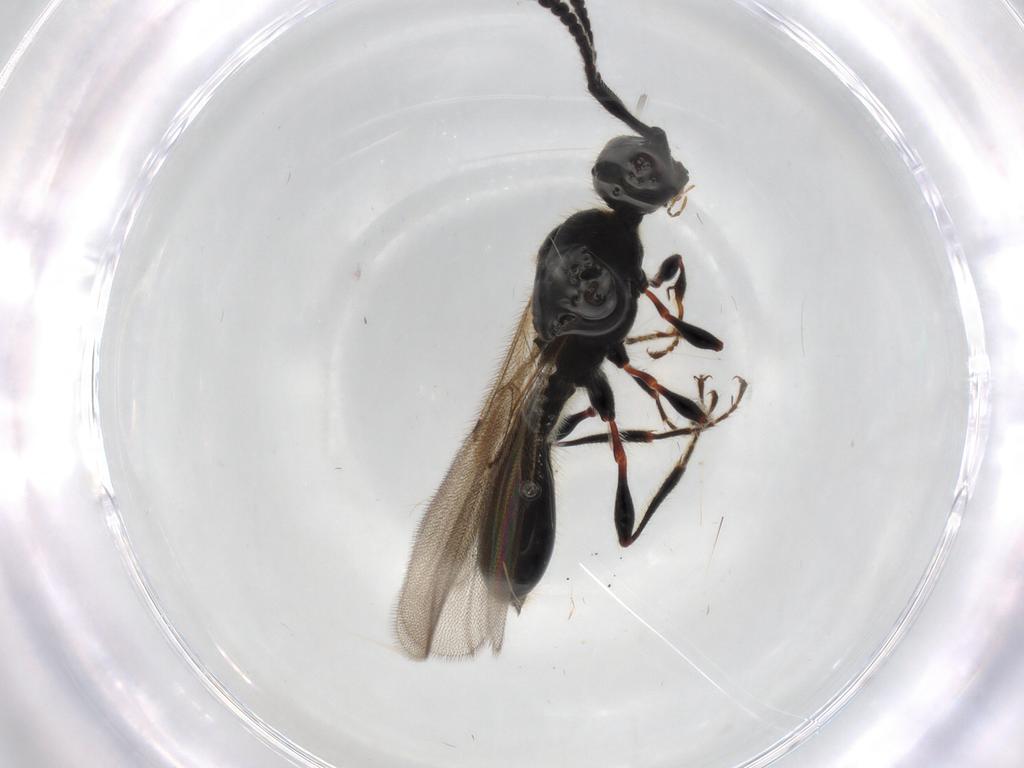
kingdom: Animalia
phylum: Arthropoda
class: Insecta
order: Hymenoptera
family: Diapriidae
